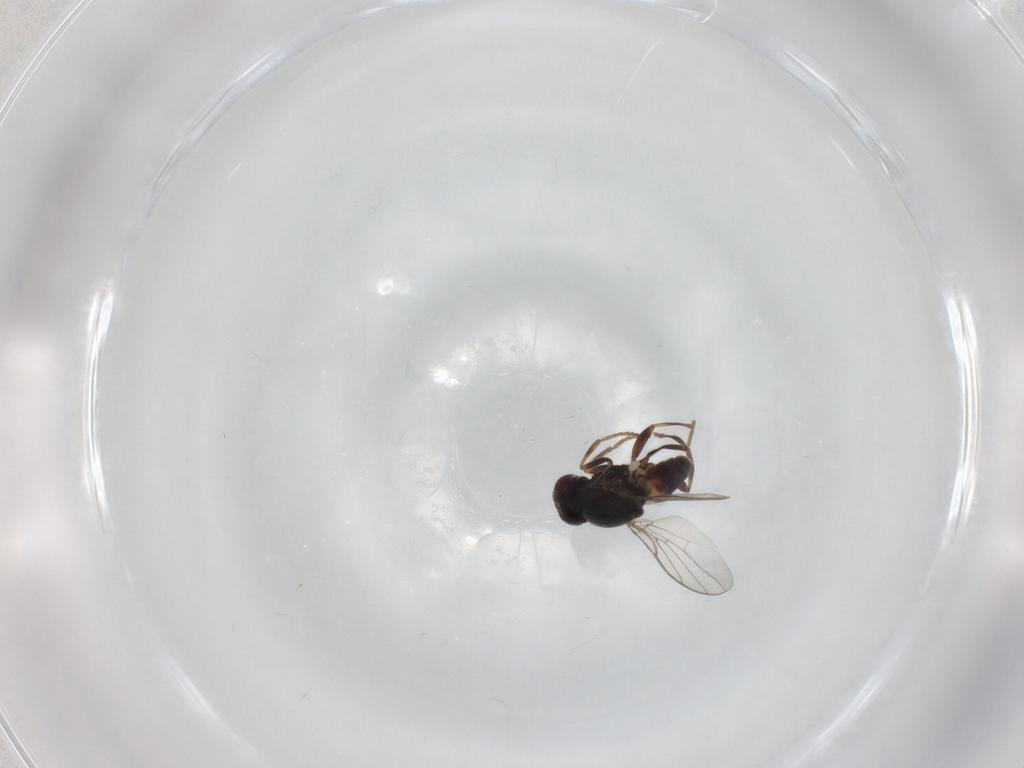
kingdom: Animalia
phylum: Arthropoda
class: Insecta
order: Diptera
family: Chloropidae
